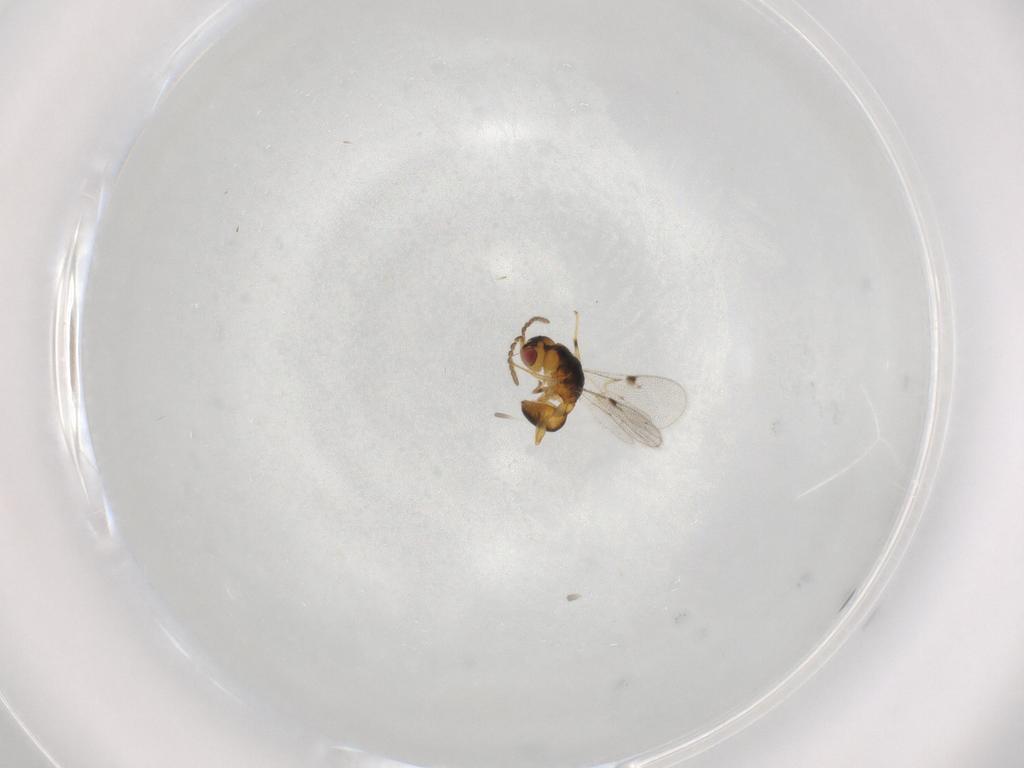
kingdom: Animalia
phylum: Arthropoda
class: Insecta
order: Hymenoptera
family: Eurytomidae
